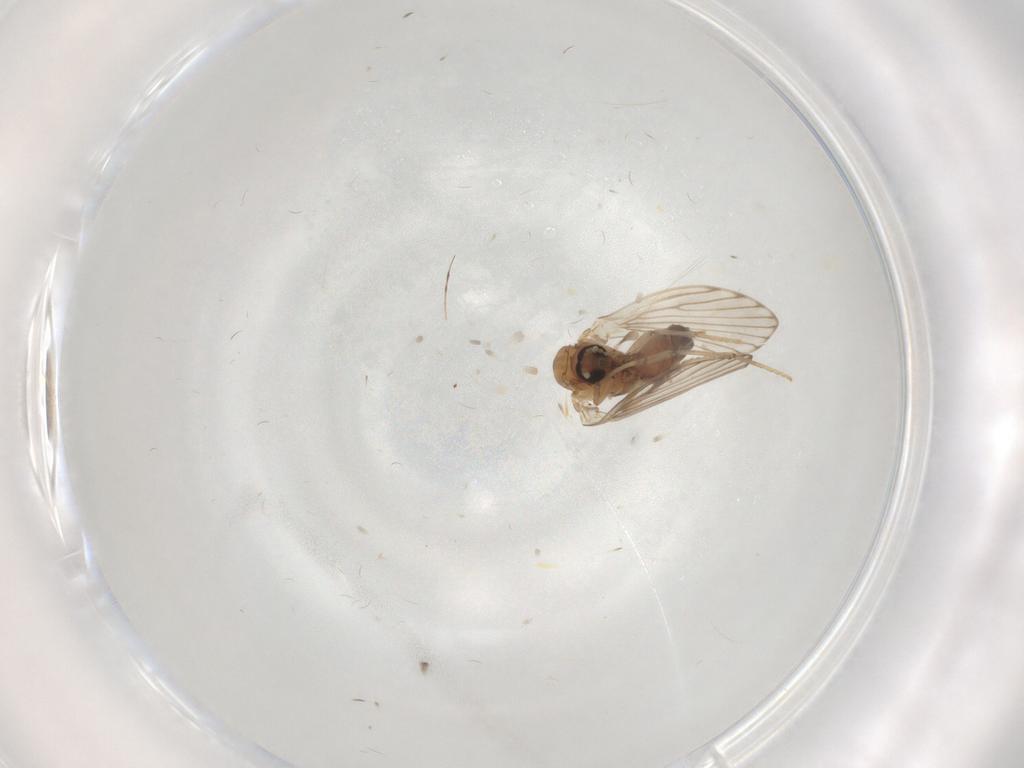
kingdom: Animalia
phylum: Arthropoda
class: Insecta
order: Diptera
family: Psychodidae
